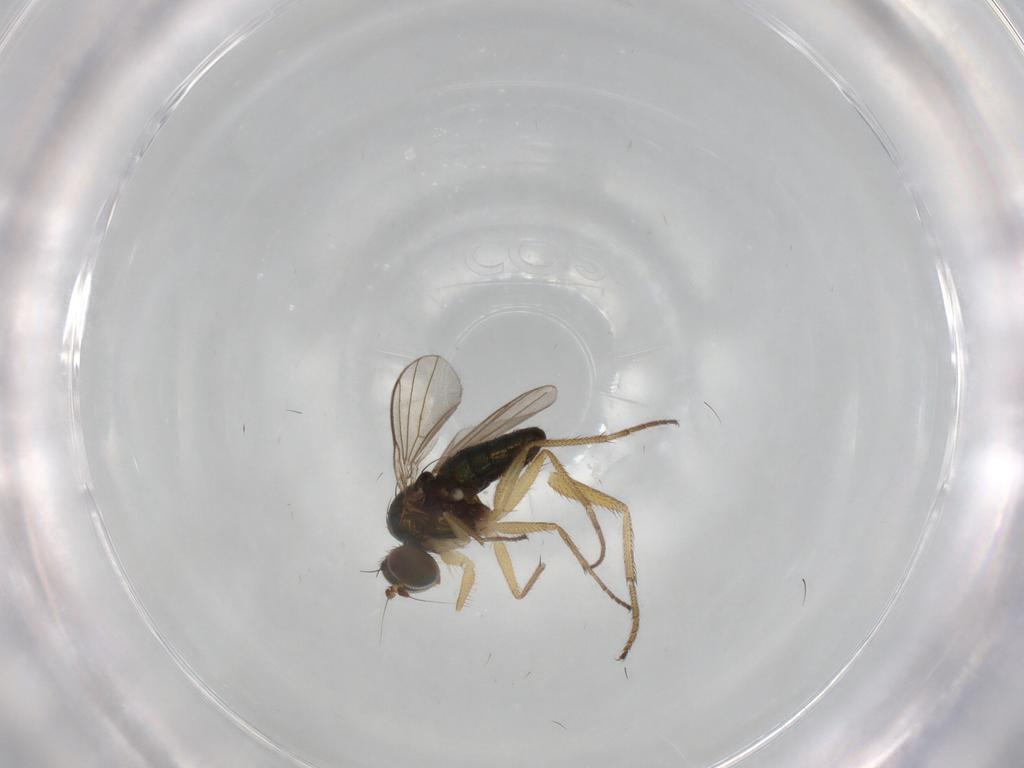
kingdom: Animalia
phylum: Arthropoda
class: Insecta
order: Diptera
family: Dolichopodidae
